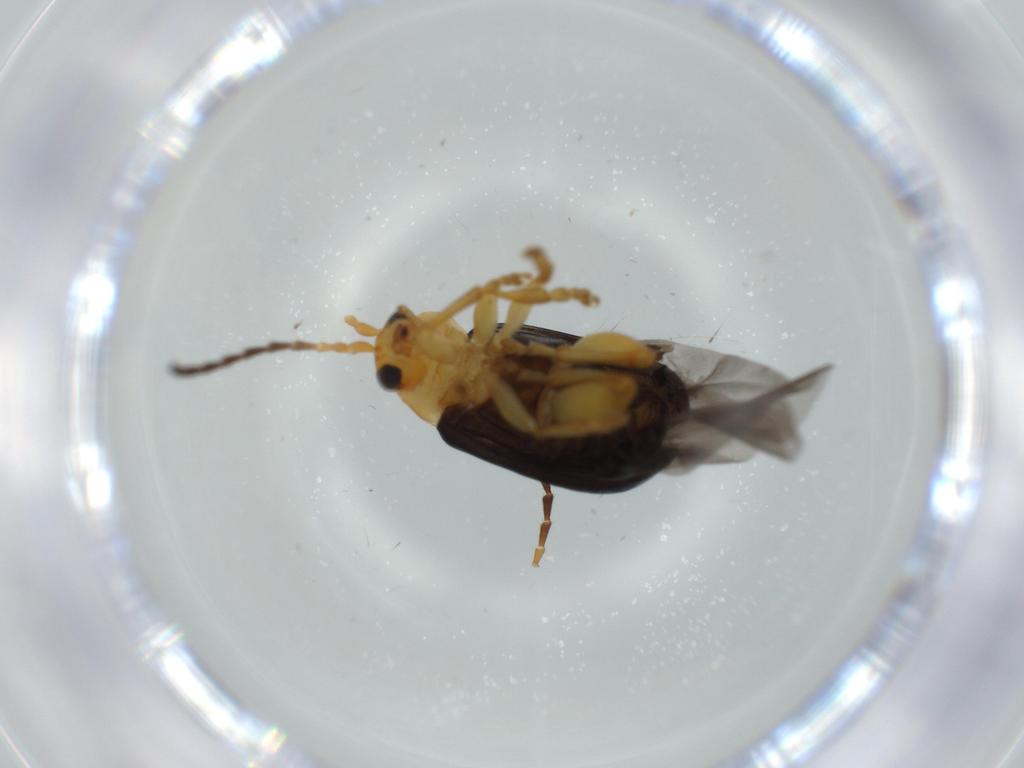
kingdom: Animalia
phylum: Arthropoda
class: Insecta
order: Coleoptera
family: Chrysomelidae
